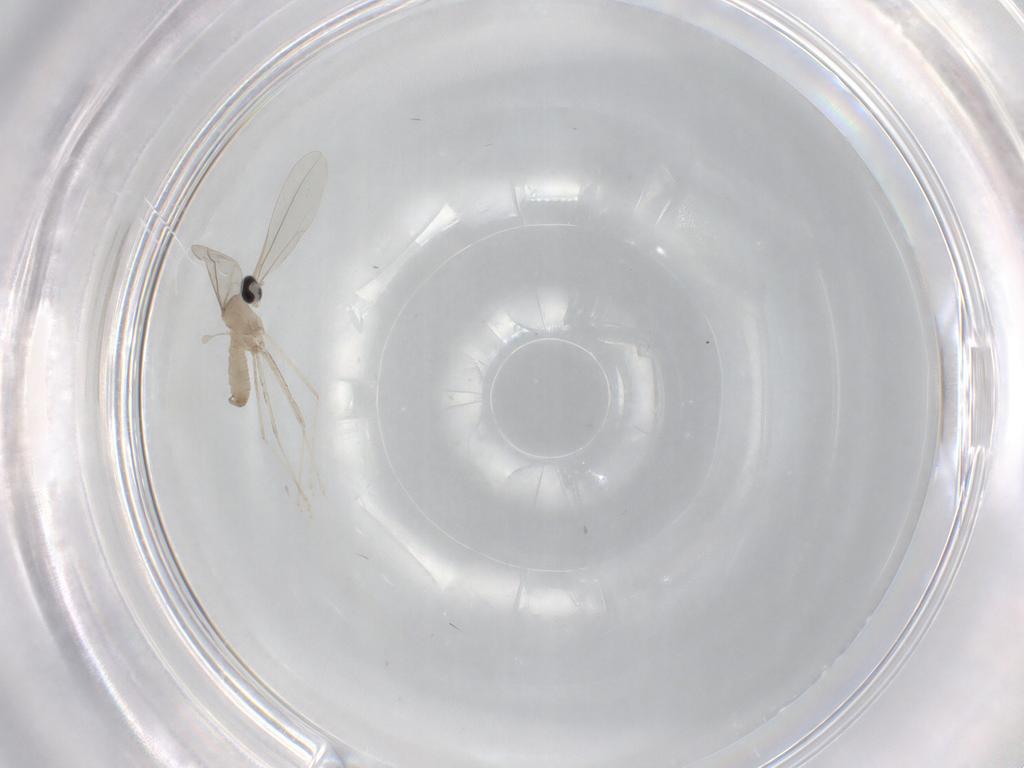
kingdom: Animalia
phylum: Arthropoda
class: Insecta
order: Diptera
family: Cecidomyiidae
